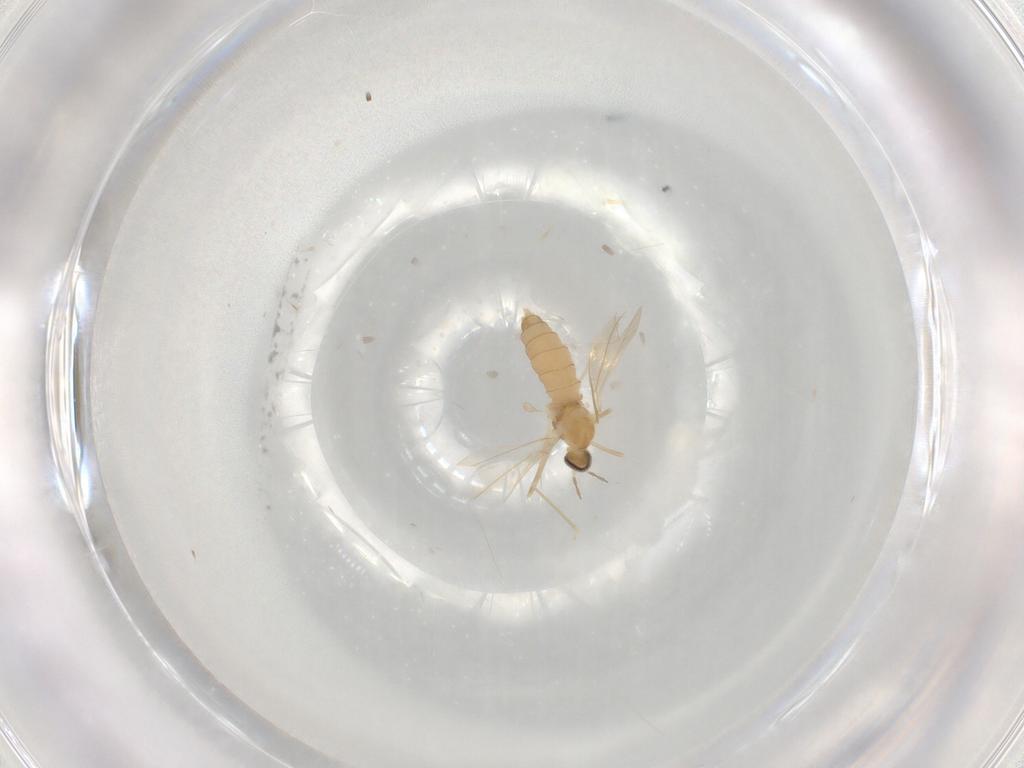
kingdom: Animalia
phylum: Arthropoda
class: Insecta
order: Diptera
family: Cecidomyiidae
